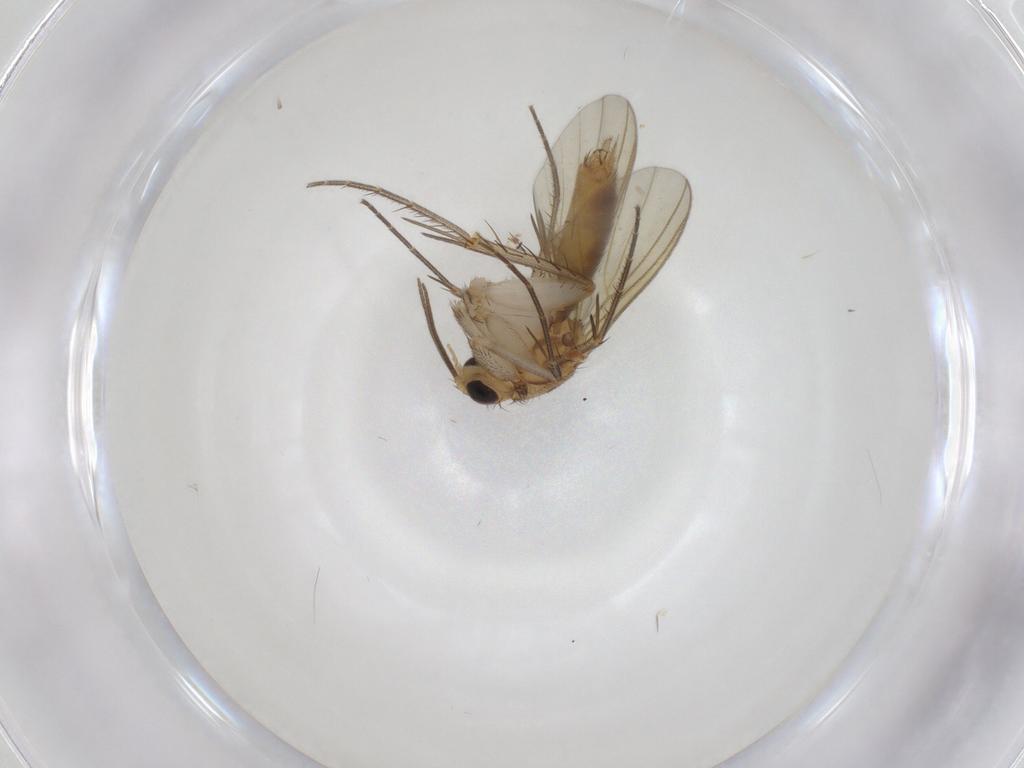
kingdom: Animalia
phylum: Arthropoda
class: Insecta
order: Diptera
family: Mycetophilidae
